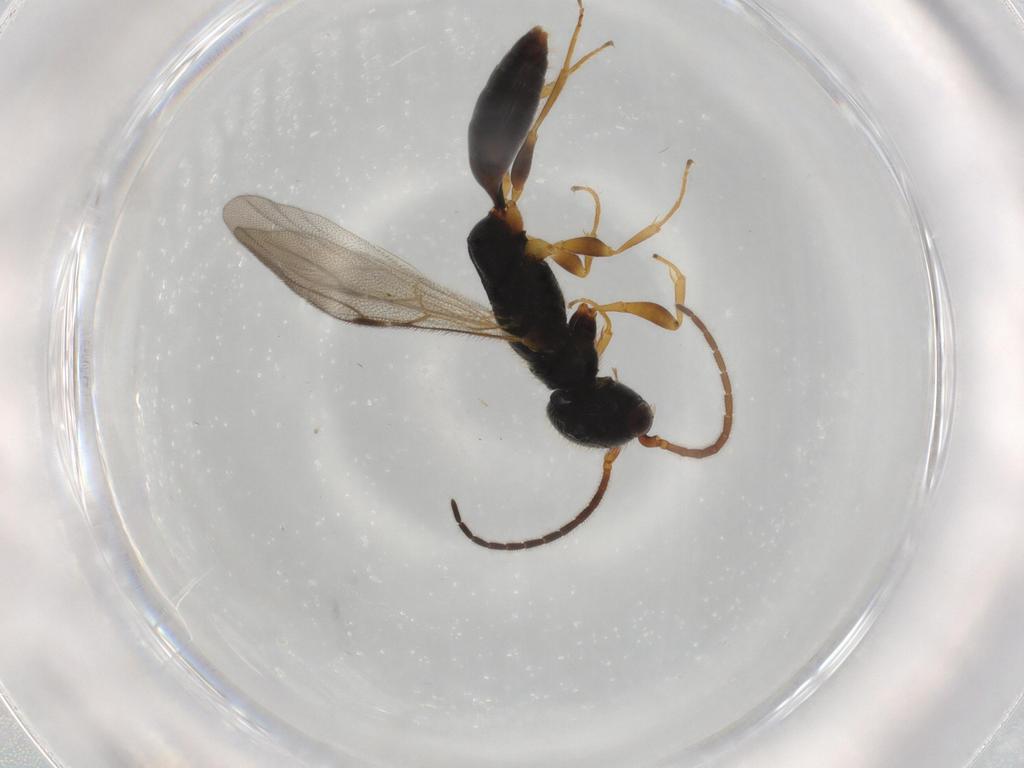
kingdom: Animalia
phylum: Arthropoda
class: Insecta
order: Hymenoptera
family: Bethylidae
